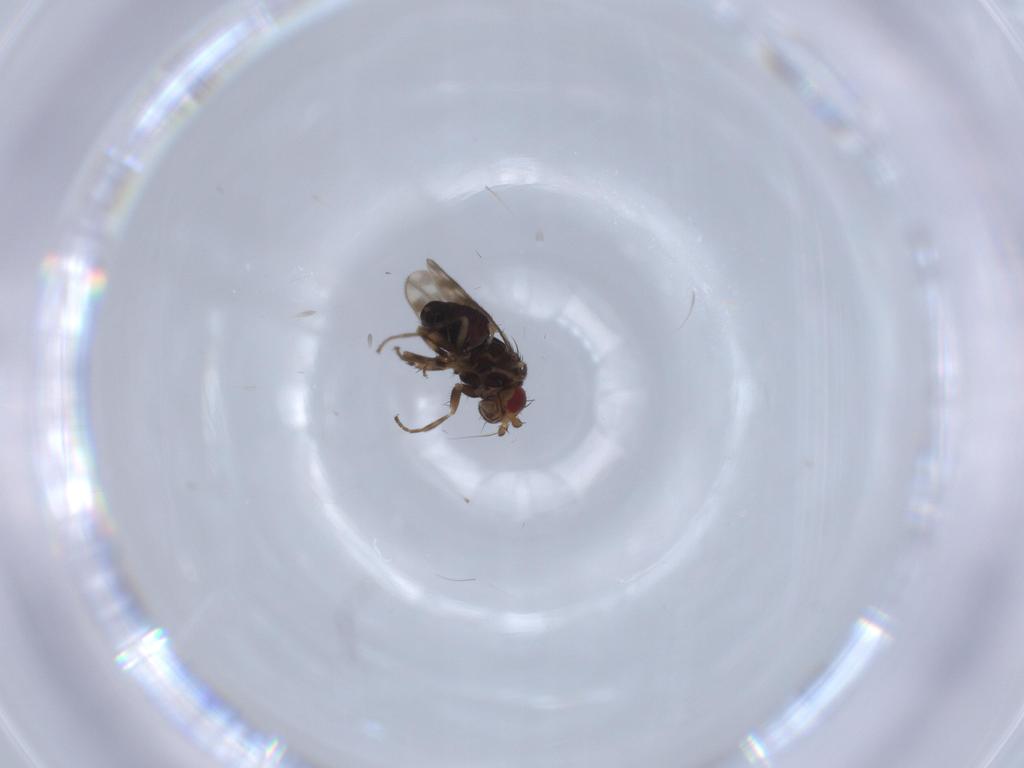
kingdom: Animalia
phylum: Arthropoda
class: Insecta
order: Diptera
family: Sphaeroceridae
